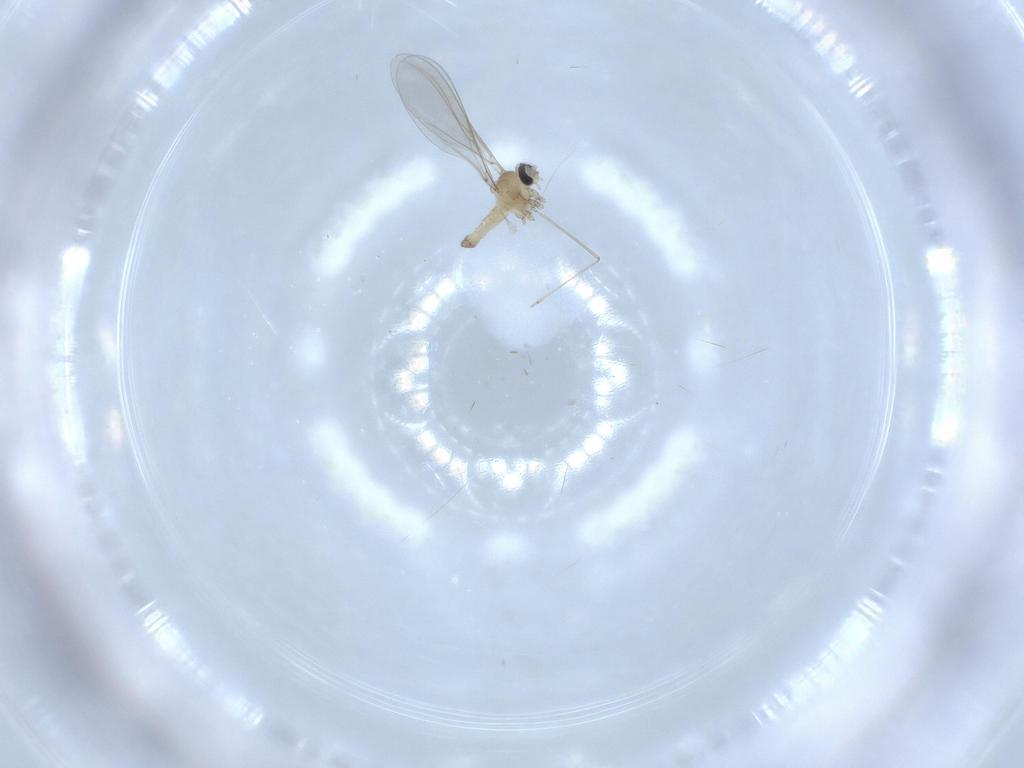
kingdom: Animalia
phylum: Arthropoda
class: Insecta
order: Diptera
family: Cecidomyiidae
